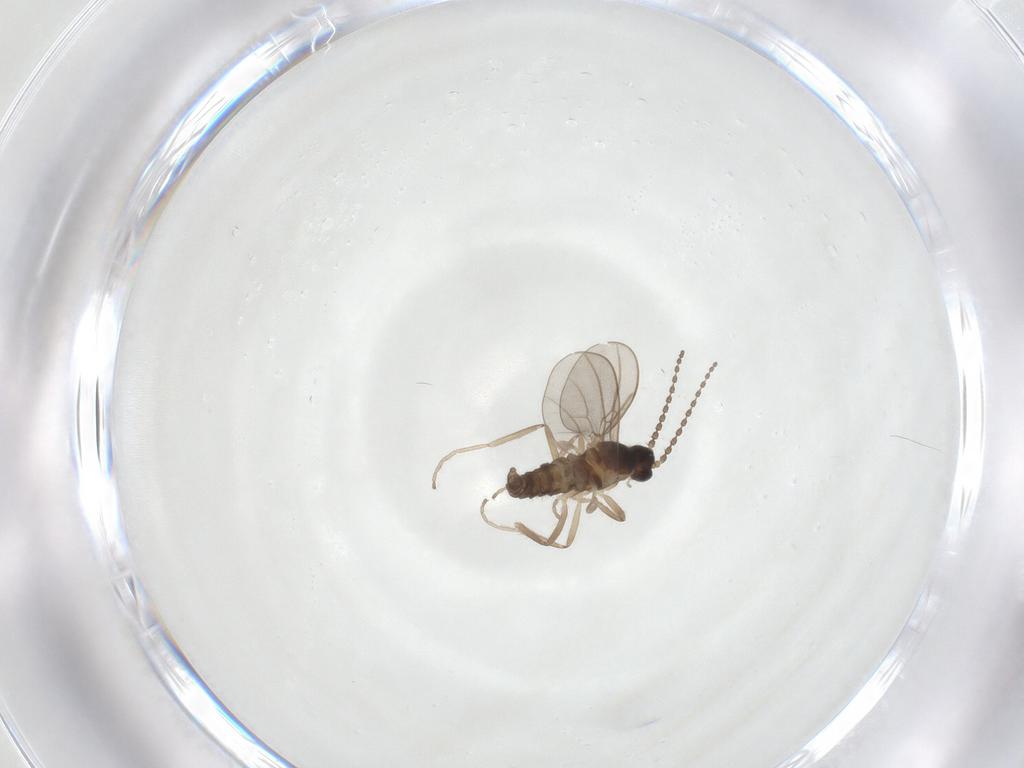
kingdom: Animalia
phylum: Arthropoda
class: Insecta
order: Diptera
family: Cecidomyiidae
